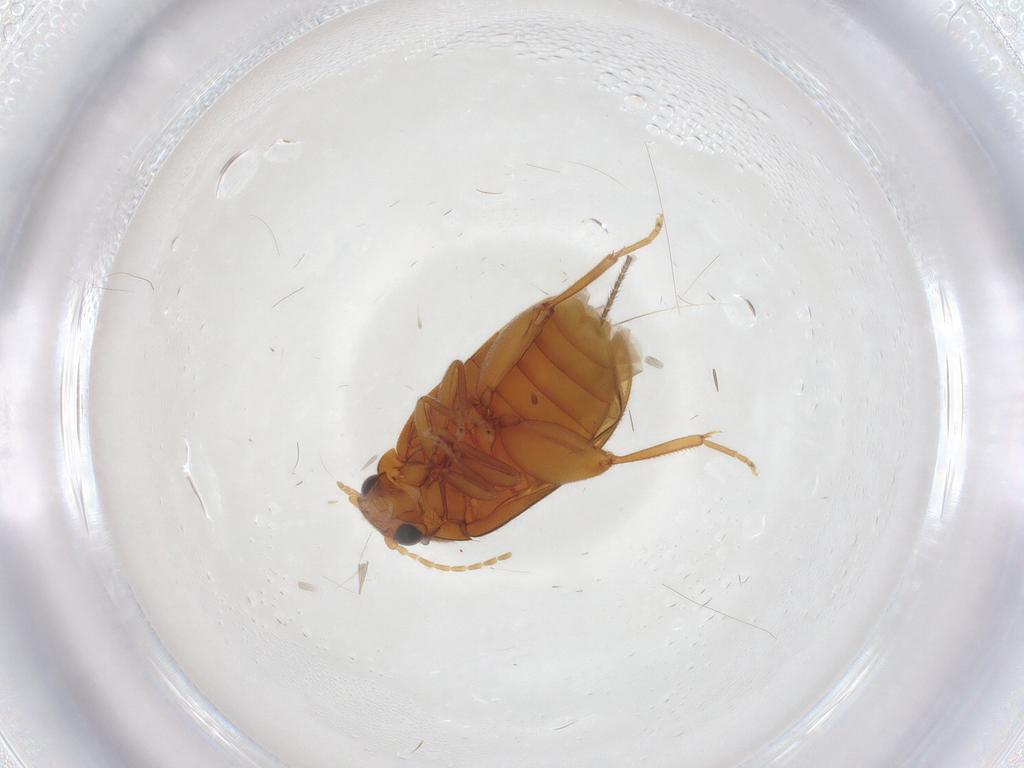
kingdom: Animalia
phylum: Arthropoda
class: Insecta
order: Coleoptera
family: Scirtidae
